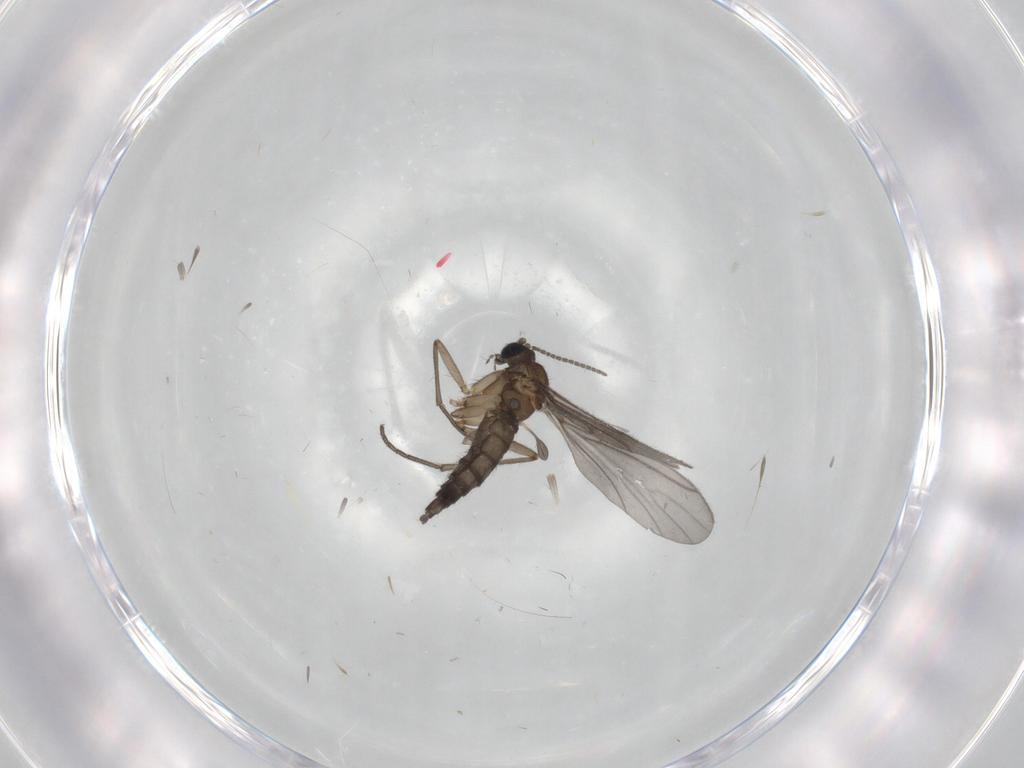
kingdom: Animalia
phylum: Arthropoda
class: Insecta
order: Diptera
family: Sciaridae
